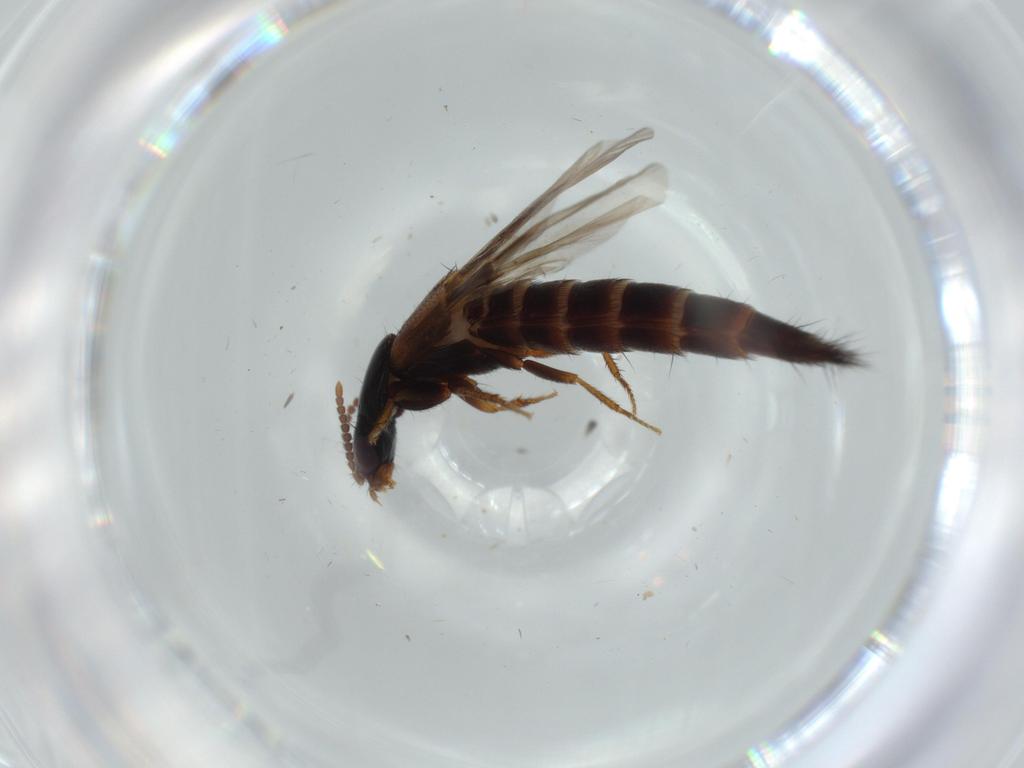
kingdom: Animalia
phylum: Arthropoda
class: Insecta
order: Coleoptera
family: Staphylinidae
